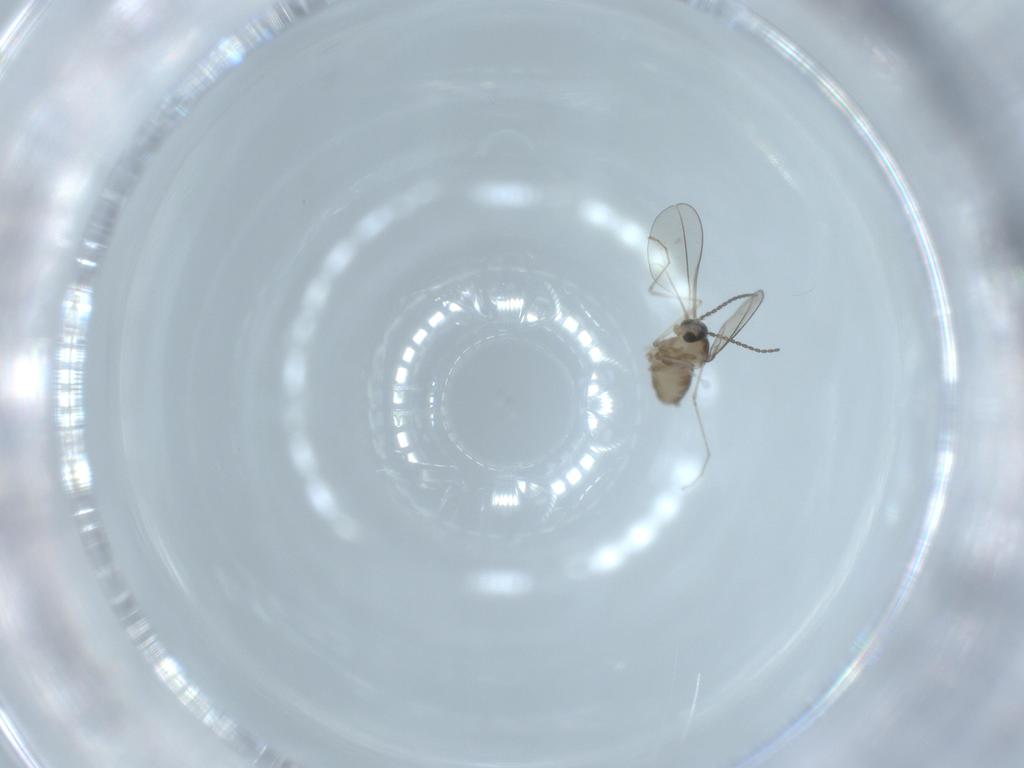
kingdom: Animalia
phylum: Arthropoda
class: Insecta
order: Diptera
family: Cecidomyiidae
